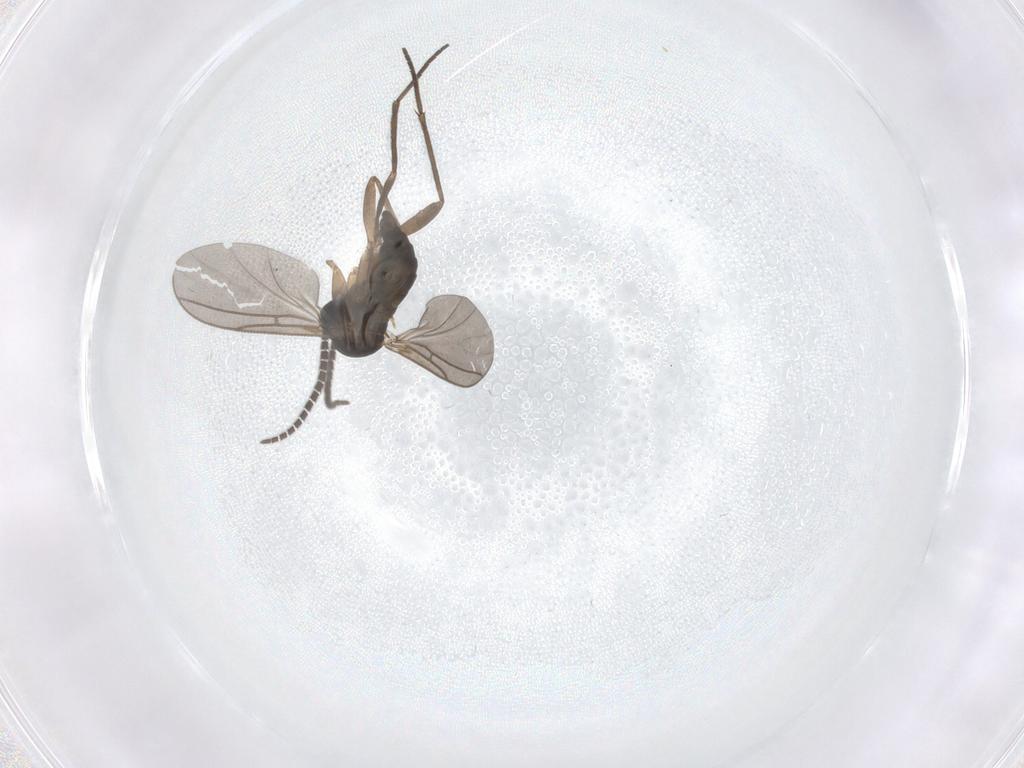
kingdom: Animalia
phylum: Arthropoda
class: Insecta
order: Diptera
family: Sciaridae
